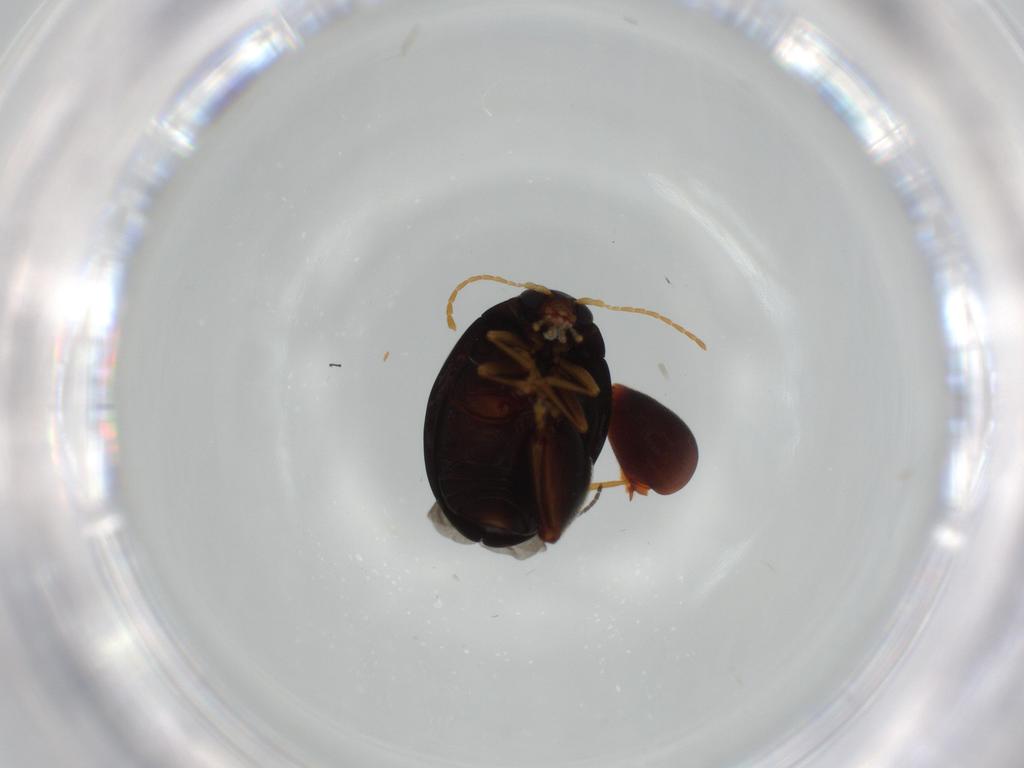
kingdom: Animalia
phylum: Arthropoda
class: Insecta
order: Coleoptera
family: Chrysomelidae
